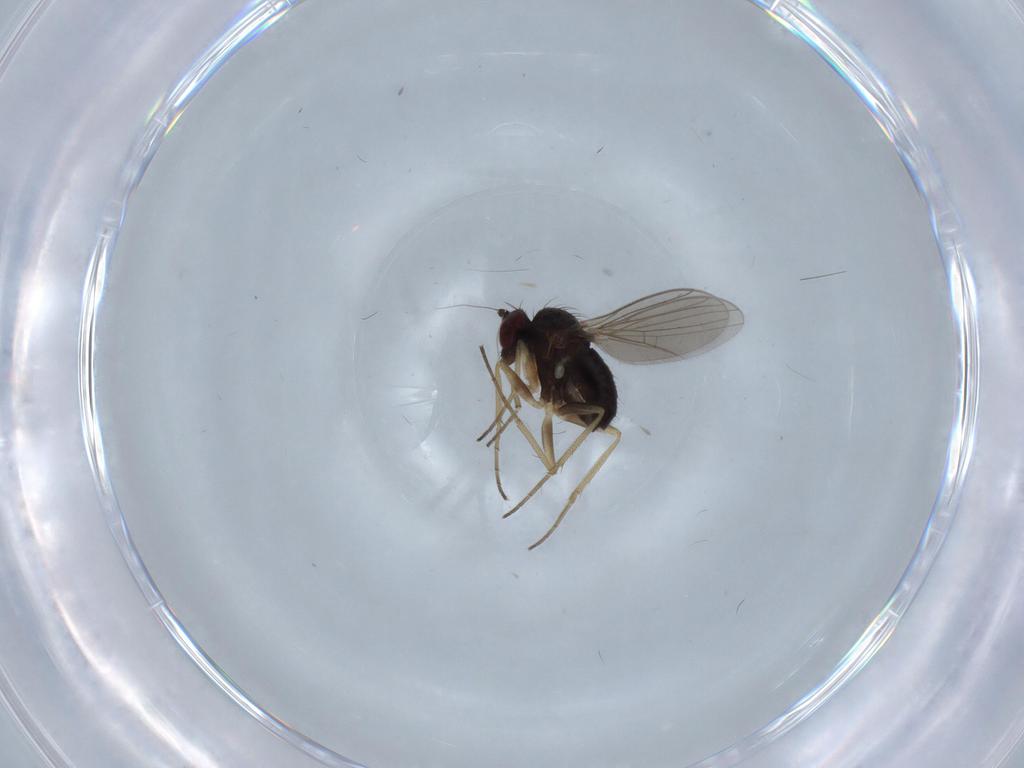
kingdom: Animalia
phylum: Arthropoda
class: Insecta
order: Diptera
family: Dolichopodidae
